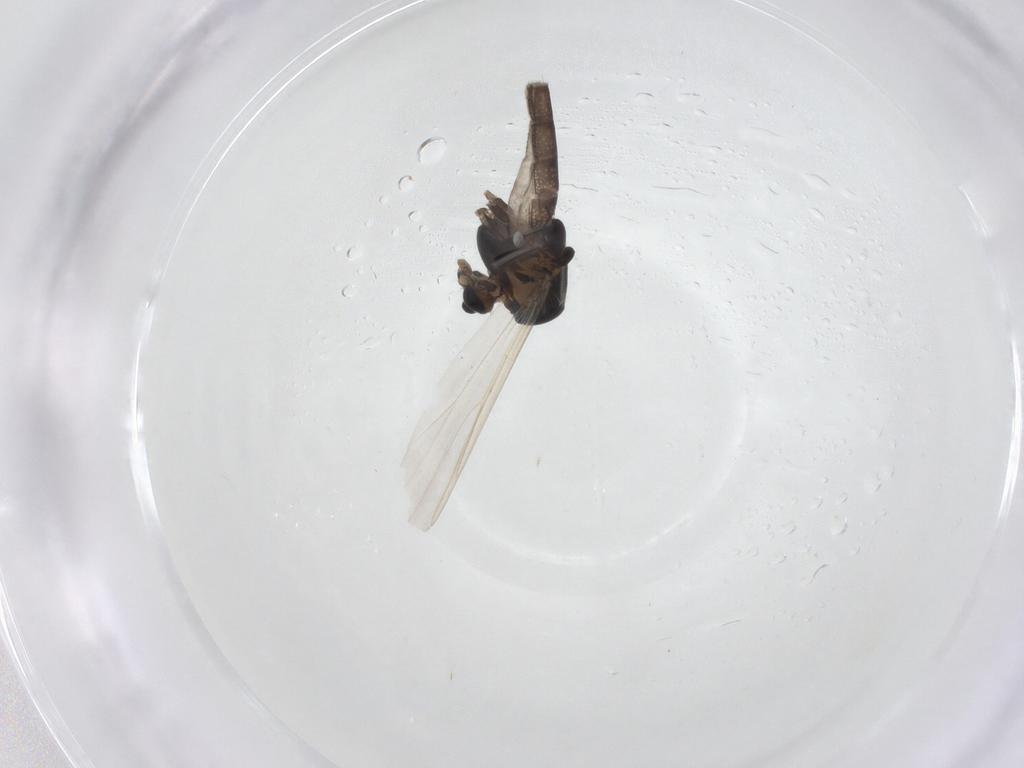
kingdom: Animalia
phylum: Arthropoda
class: Insecta
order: Diptera
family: Chironomidae
